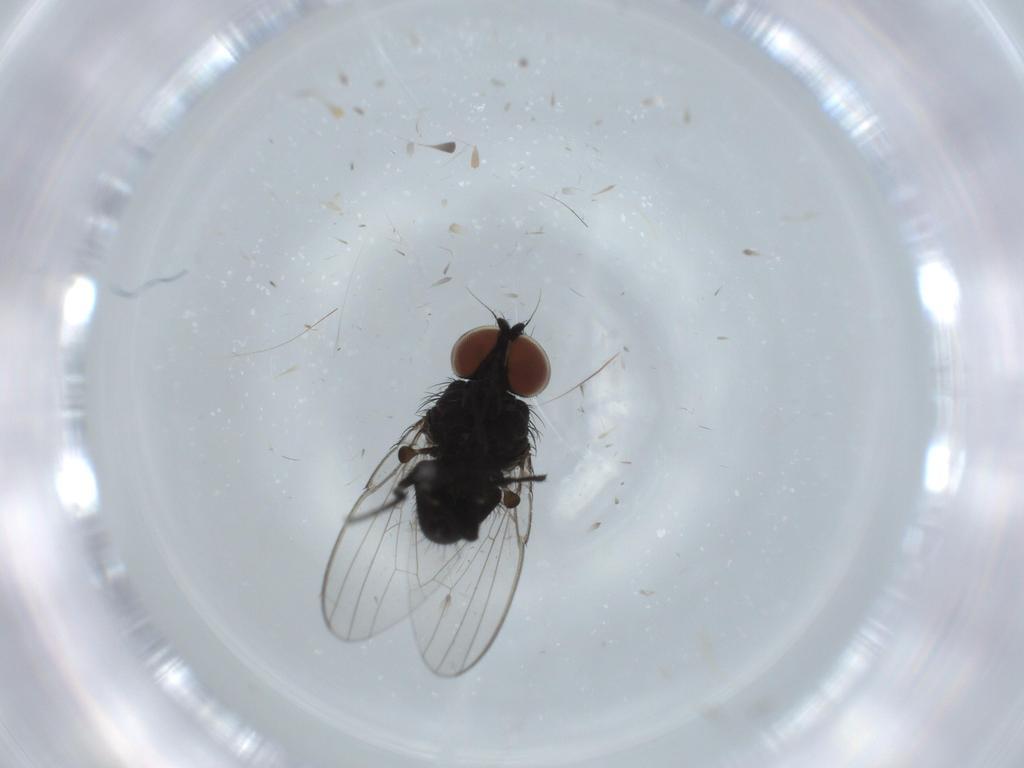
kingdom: Animalia
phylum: Arthropoda
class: Insecta
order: Diptera
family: Milichiidae
